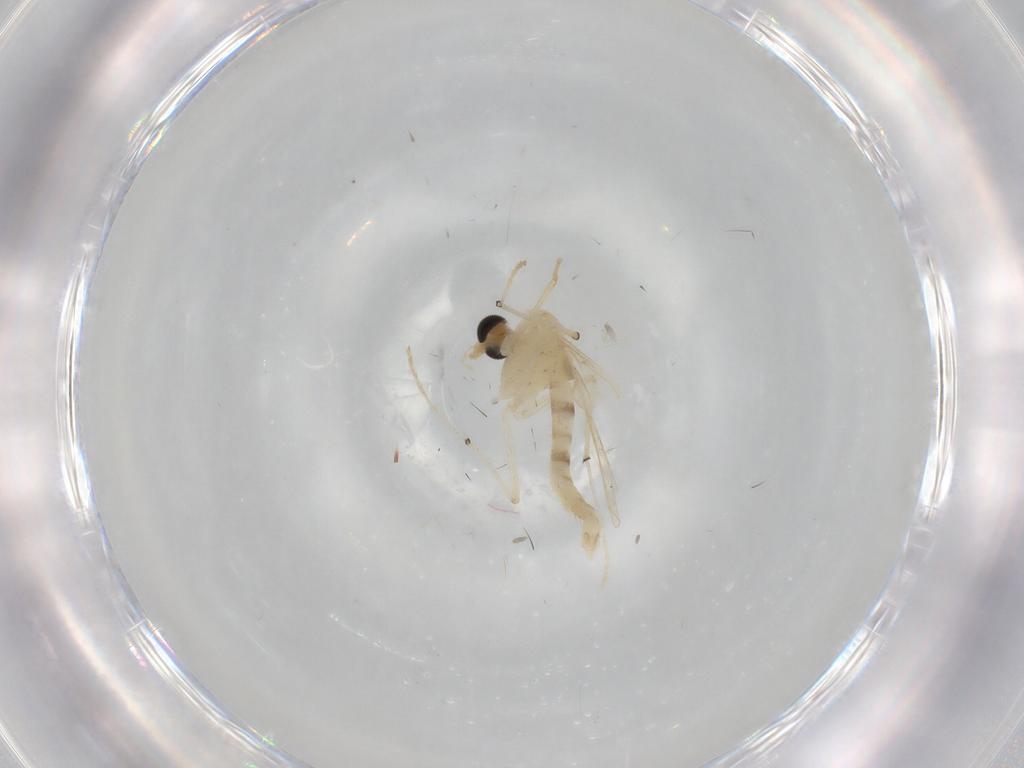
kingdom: Animalia
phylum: Arthropoda
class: Insecta
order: Diptera
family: Chironomidae
